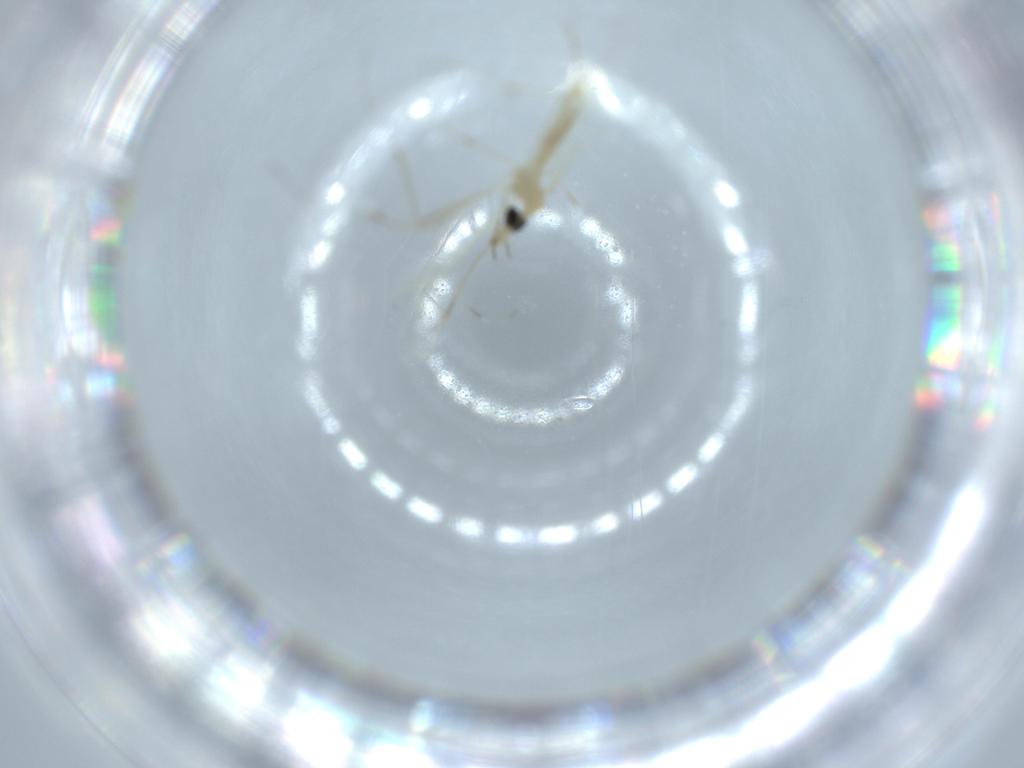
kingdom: Animalia
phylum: Arthropoda
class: Insecta
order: Diptera
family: Cecidomyiidae
